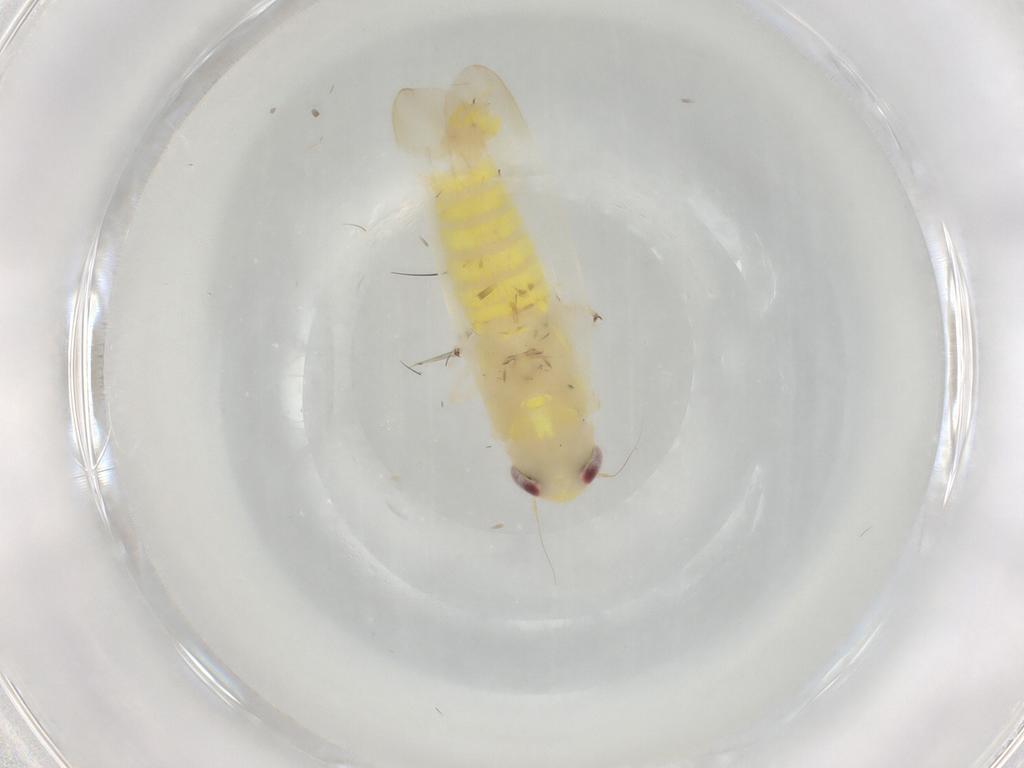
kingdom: Animalia
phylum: Arthropoda
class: Insecta
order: Hemiptera
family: Cicadellidae
